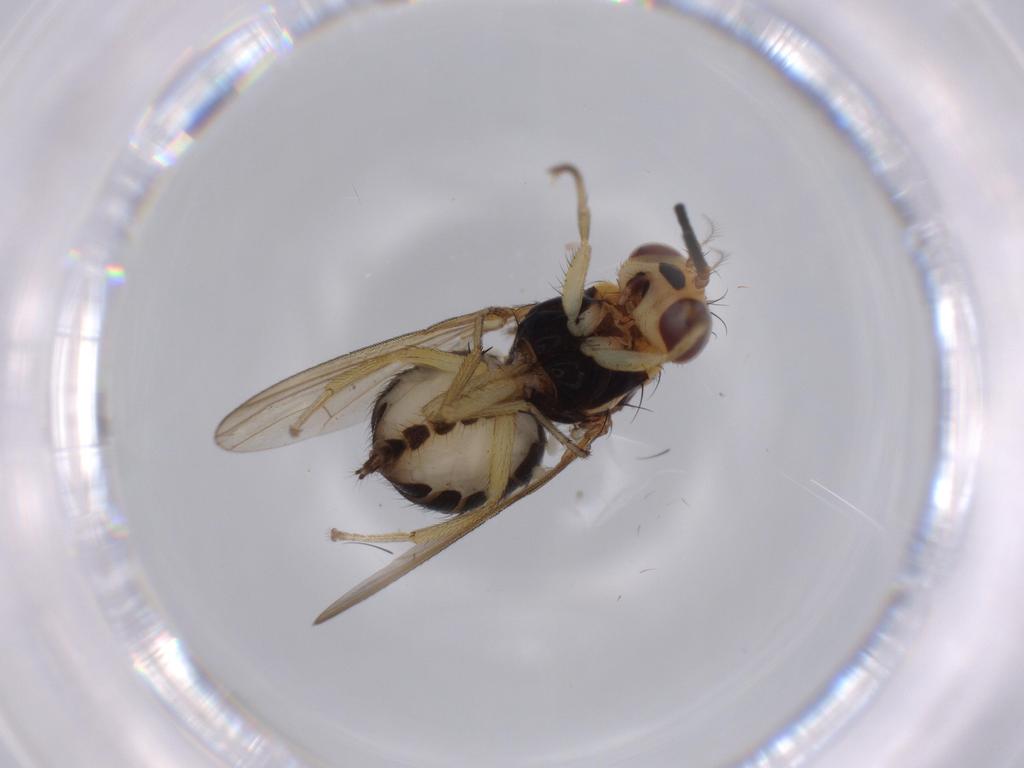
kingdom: Animalia
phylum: Arthropoda
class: Insecta
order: Diptera
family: Lauxaniidae
